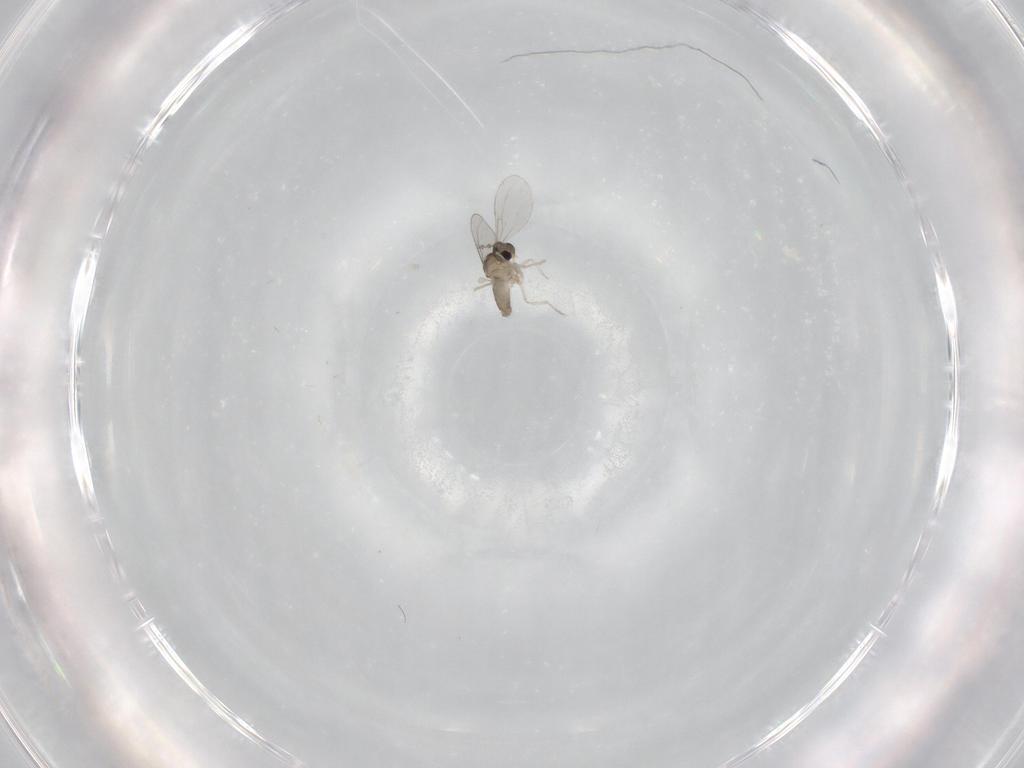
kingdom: Animalia
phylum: Arthropoda
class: Insecta
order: Diptera
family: Cecidomyiidae
